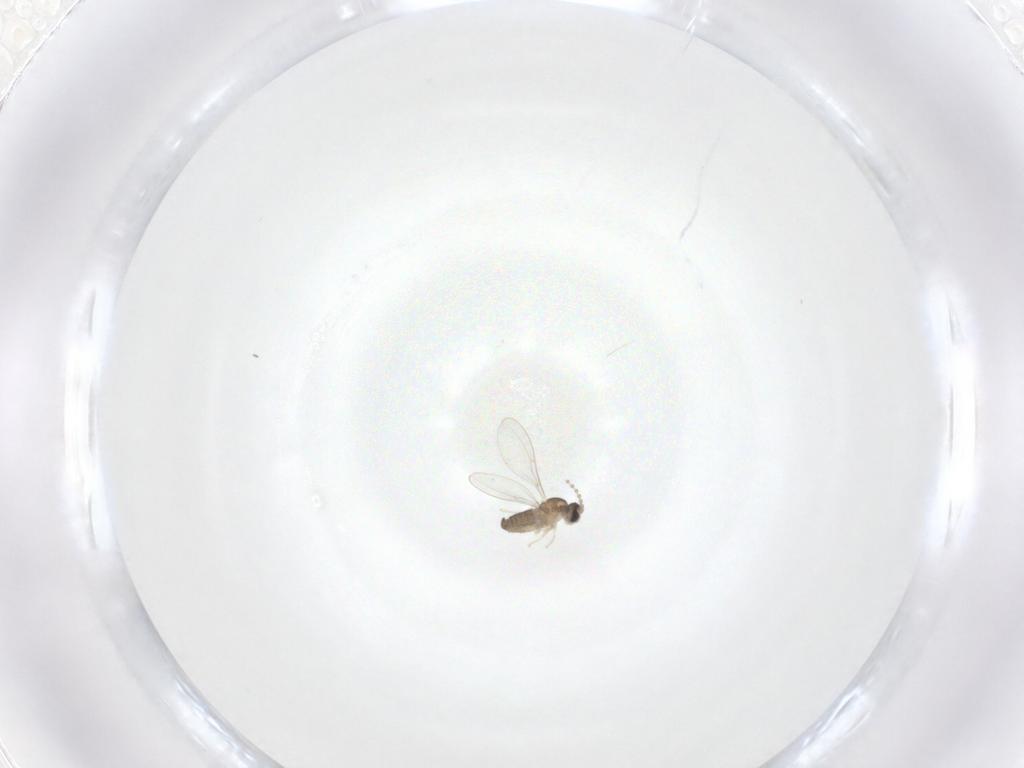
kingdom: Animalia
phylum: Arthropoda
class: Insecta
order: Diptera
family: Cecidomyiidae
